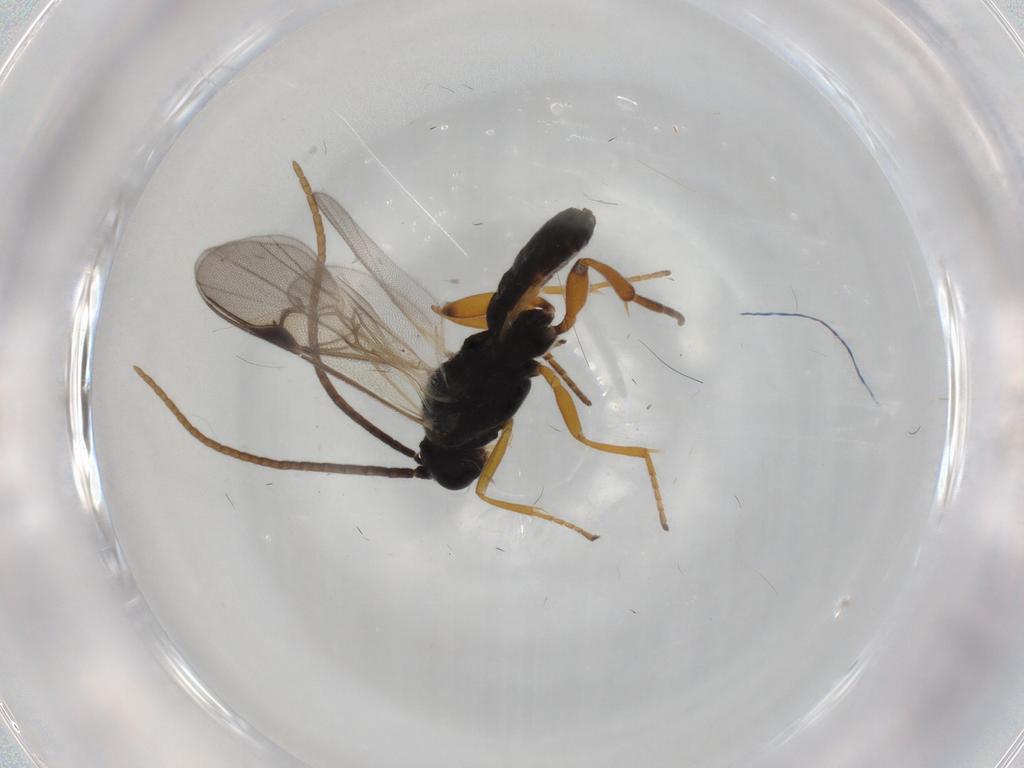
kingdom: Animalia
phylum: Arthropoda
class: Insecta
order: Hymenoptera
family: Braconidae
